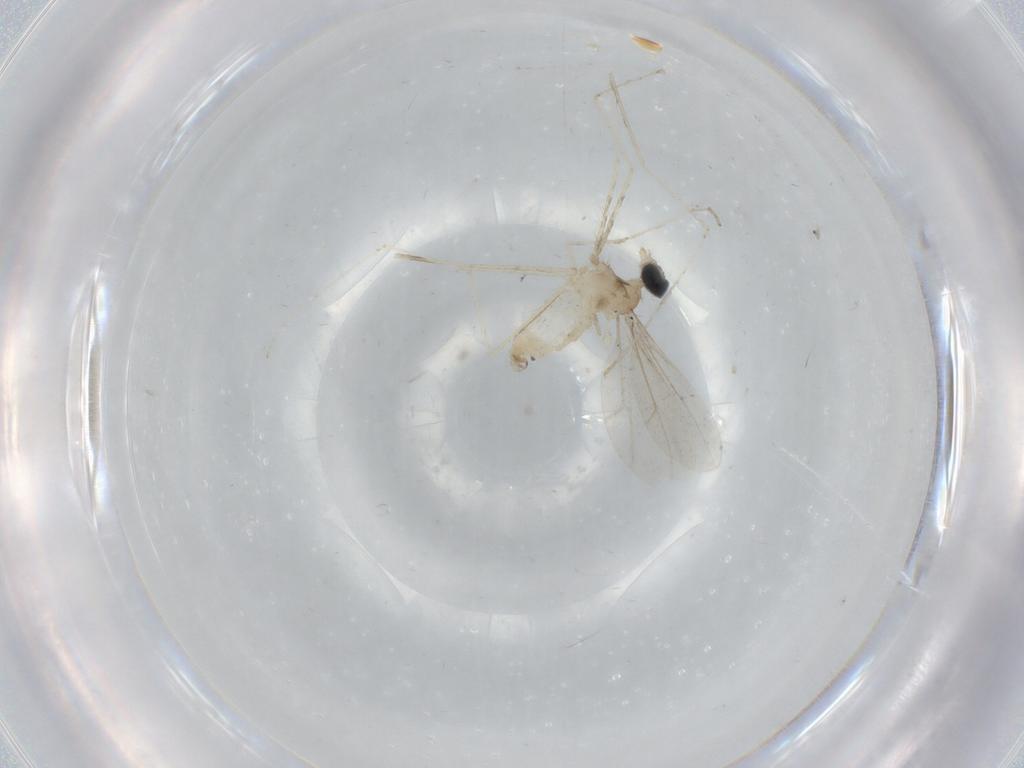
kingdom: Animalia
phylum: Arthropoda
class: Insecta
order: Diptera
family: Cecidomyiidae
